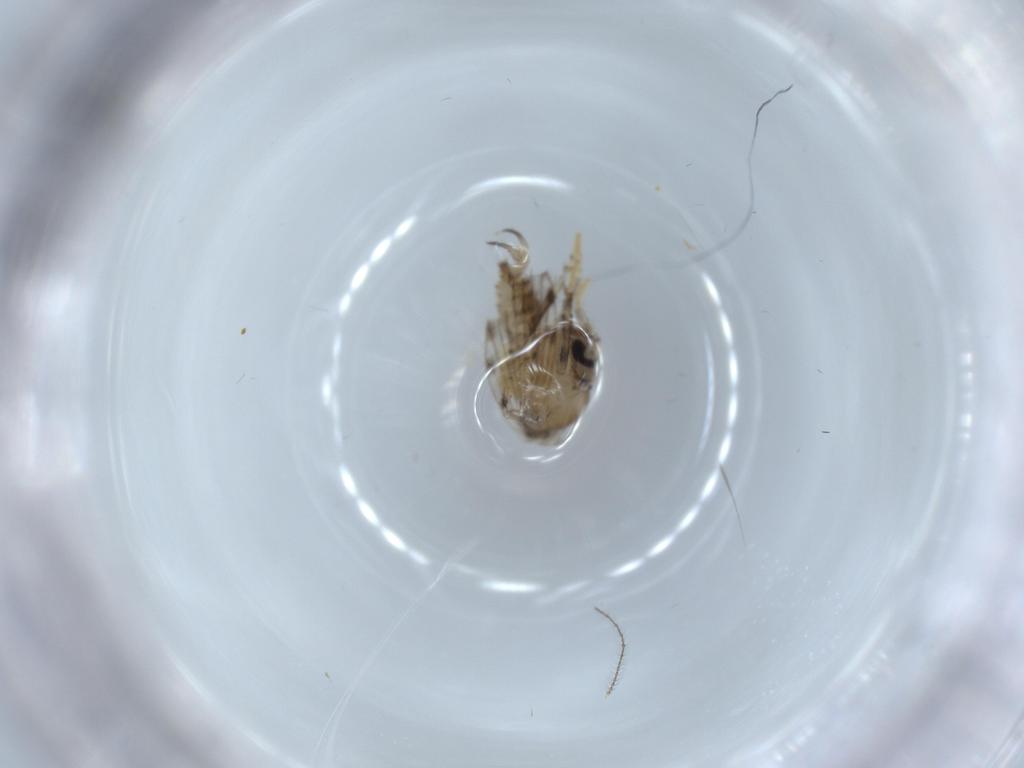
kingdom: Animalia
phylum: Arthropoda
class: Insecta
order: Diptera
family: Psychodidae
